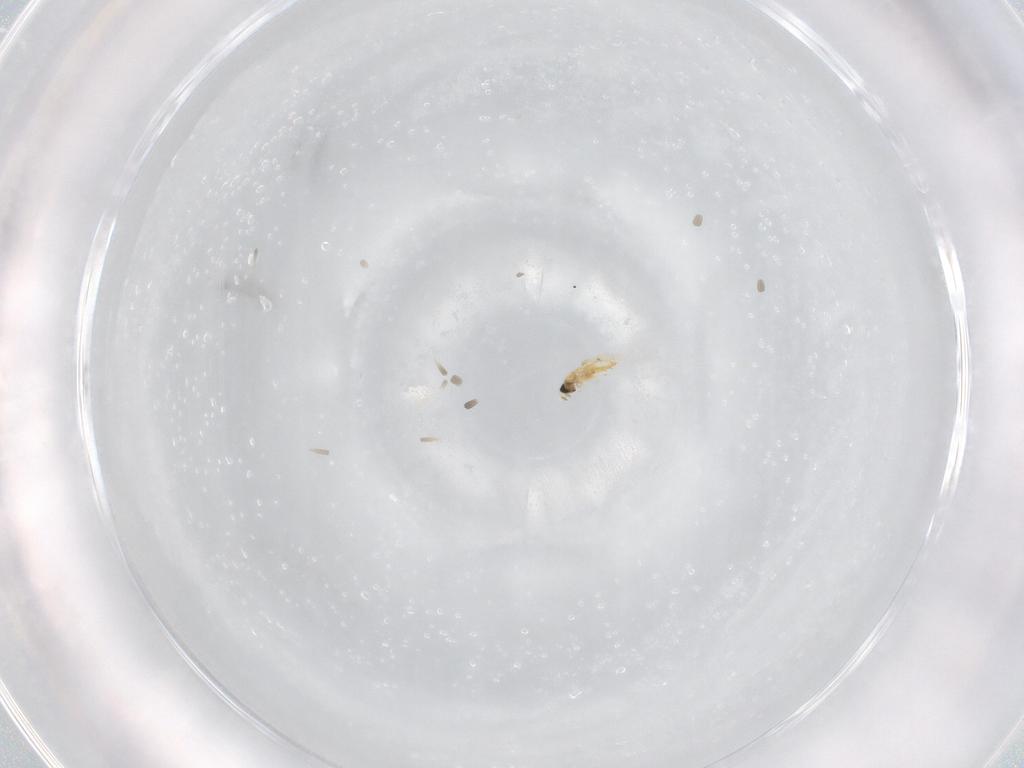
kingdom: Animalia
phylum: Arthropoda
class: Insecta
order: Hymenoptera
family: Trichogrammatidae
